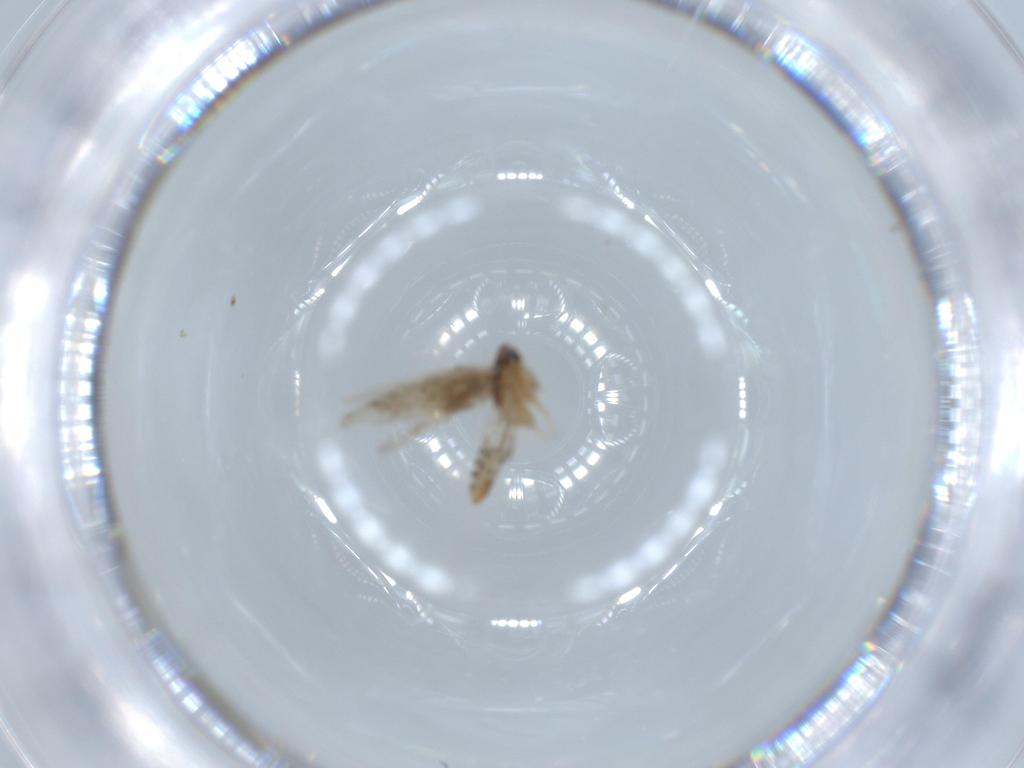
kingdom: Animalia
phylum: Arthropoda
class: Insecta
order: Lepidoptera
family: Nepticulidae
